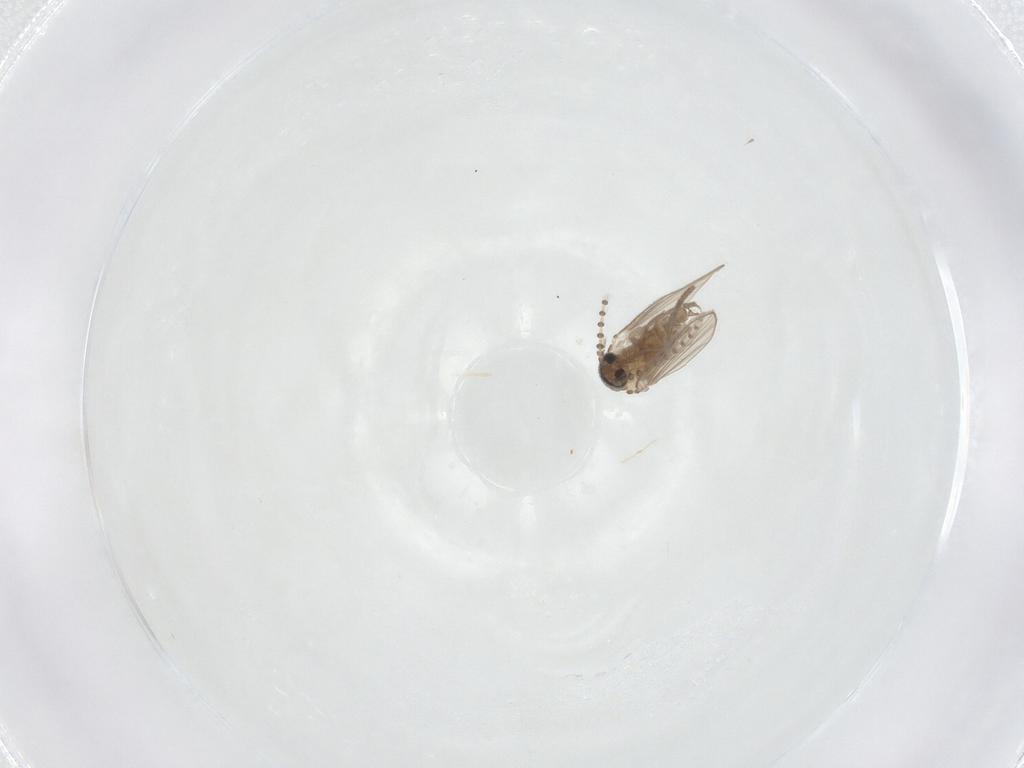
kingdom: Animalia
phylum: Arthropoda
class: Insecta
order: Diptera
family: Psychodidae
